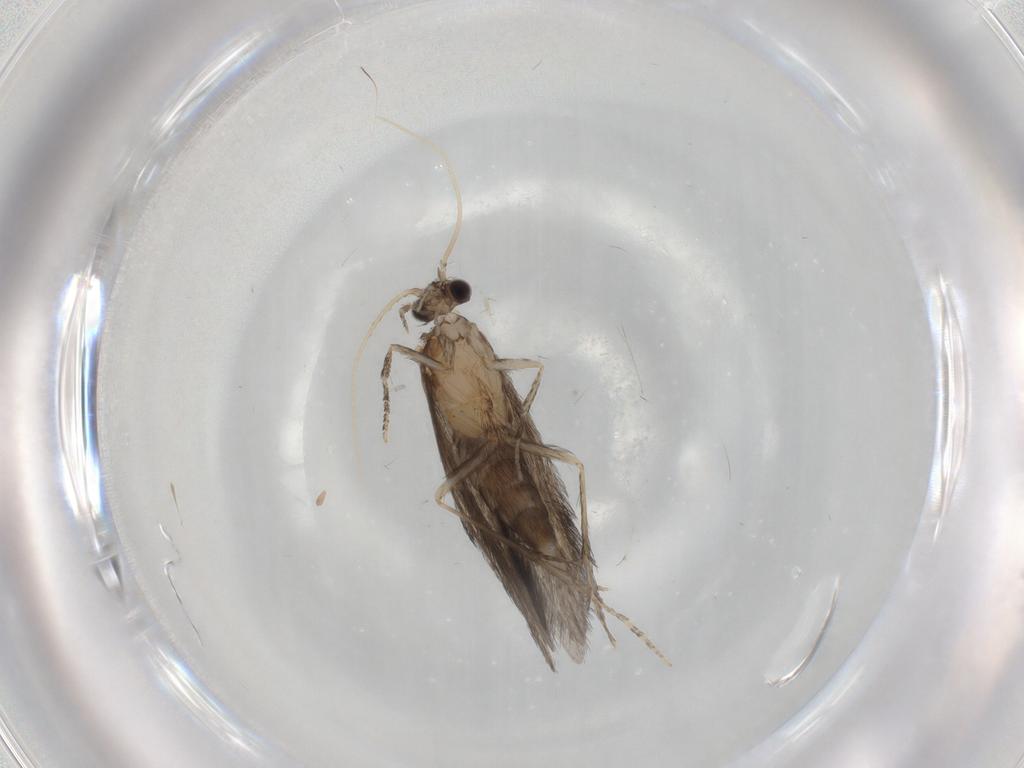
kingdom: Animalia
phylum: Arthropoda
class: Insecta
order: Trichoptera
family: Hydroptilidae
